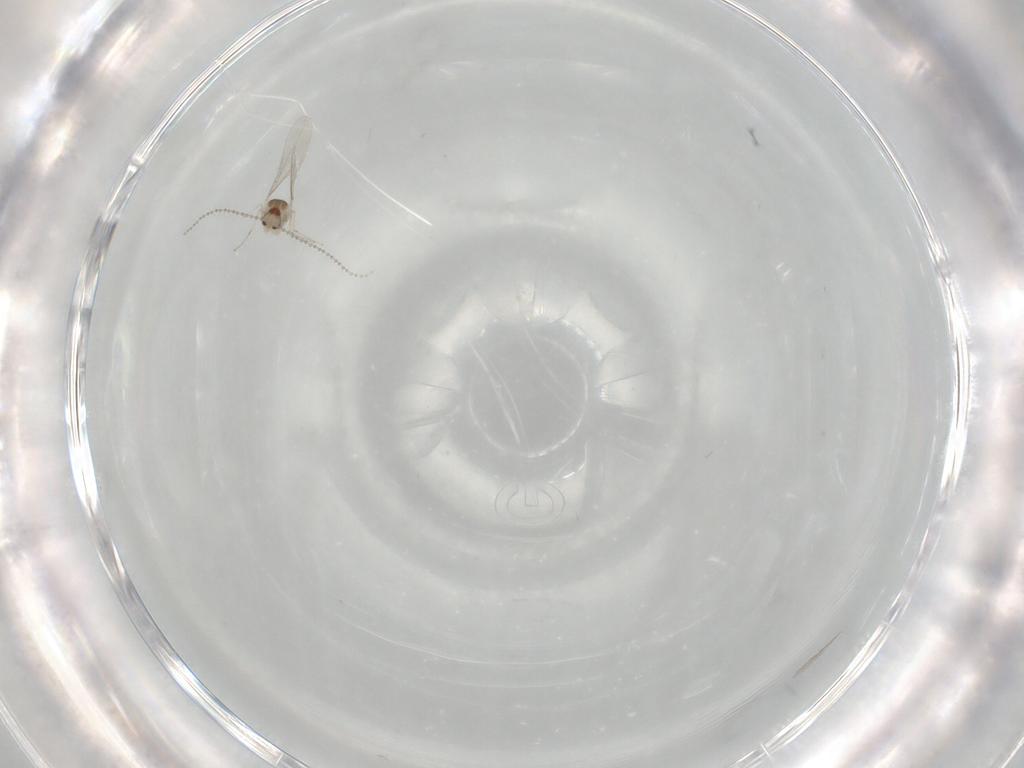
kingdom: Animalia
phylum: Arthropoda
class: Insecta
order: Diptera
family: Cecidomyiidae
